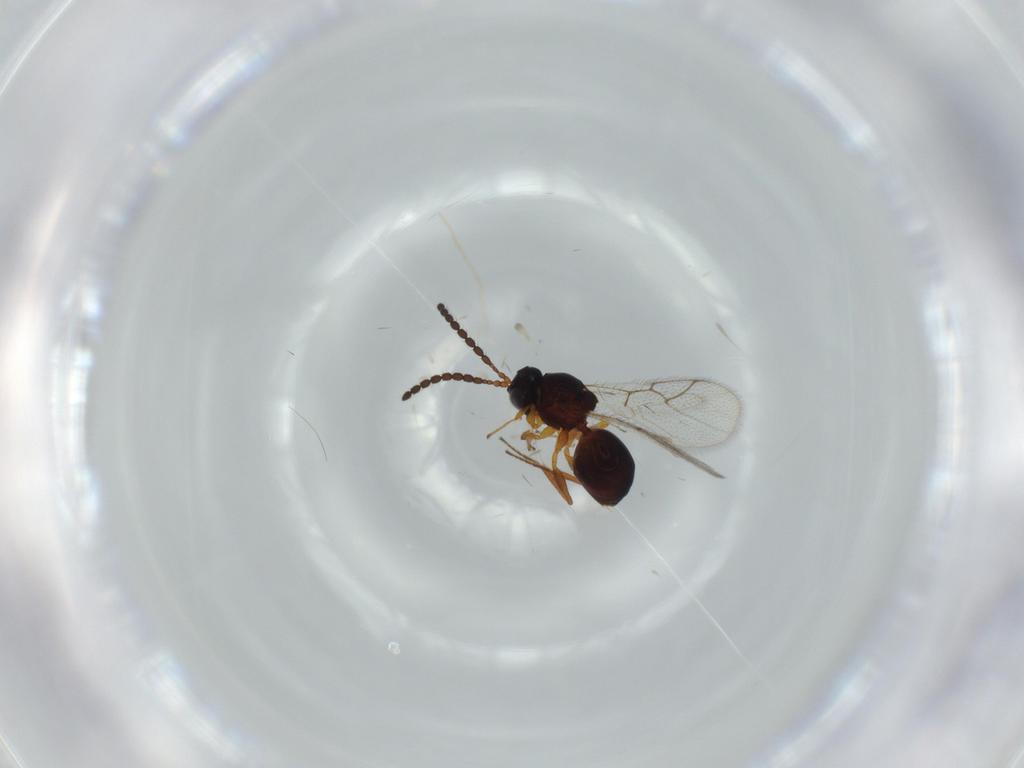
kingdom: Animalia
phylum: Arthropoda
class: Insecta
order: Hymenoptera
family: Figitidae
